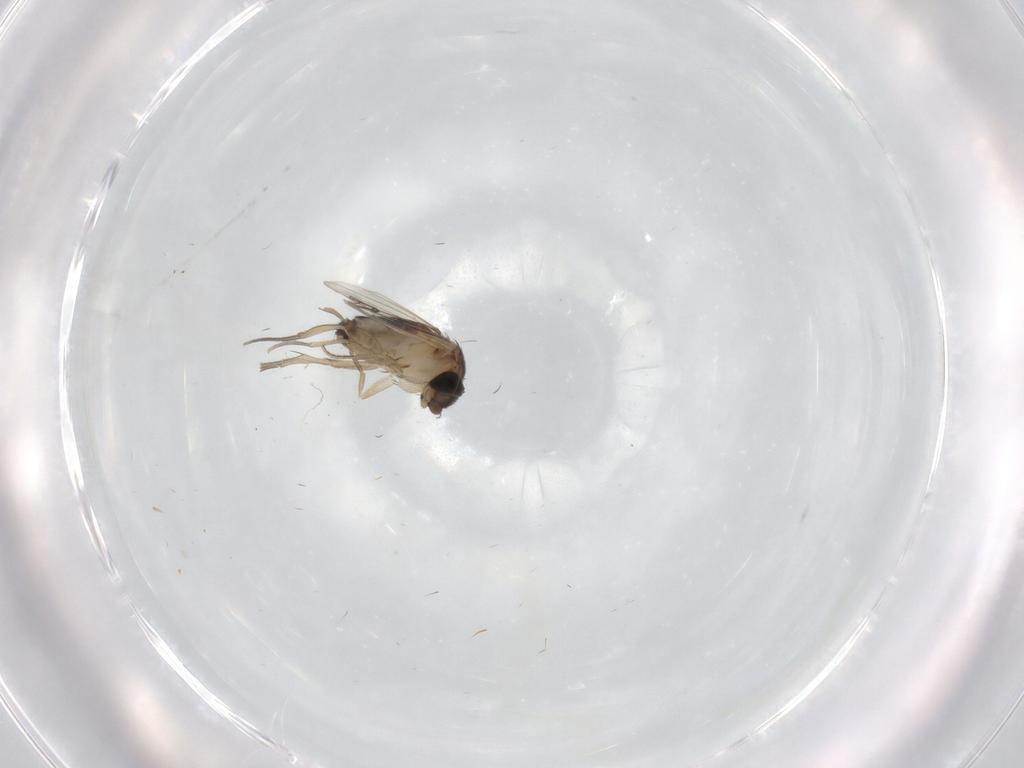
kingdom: Animalia
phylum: Arthropoda
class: Insecta
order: Diptera
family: Ceratopogonidae
